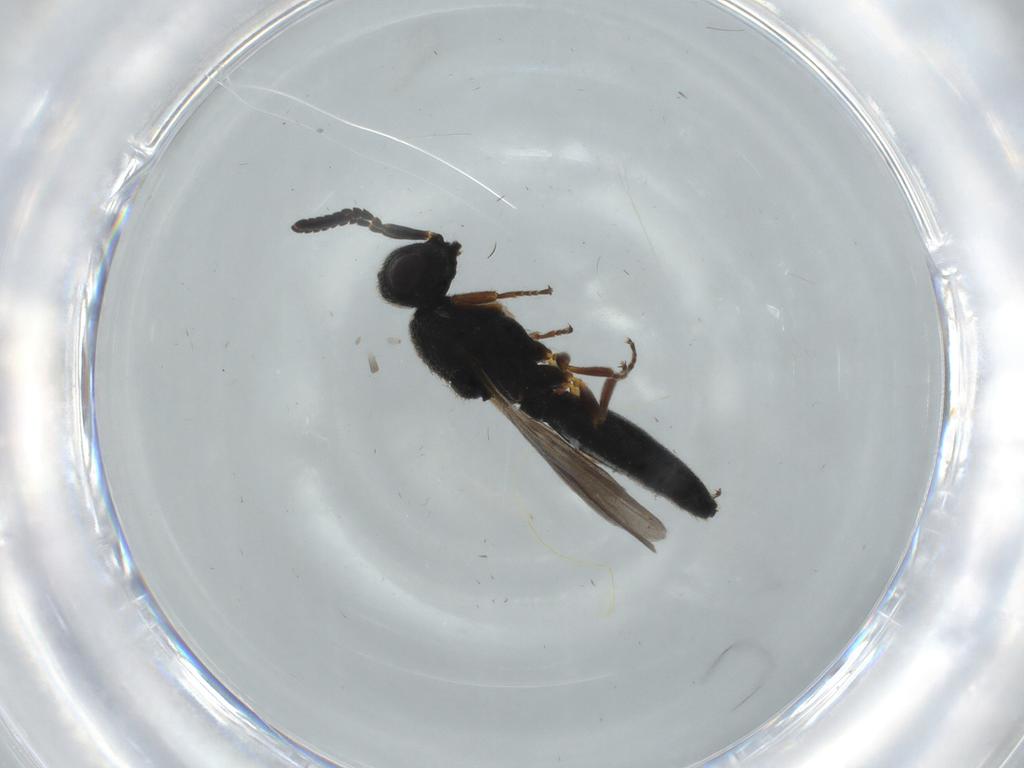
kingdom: Animalia
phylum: Arthropoda
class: Insecta
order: Hymenoptera
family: Scelionidae
